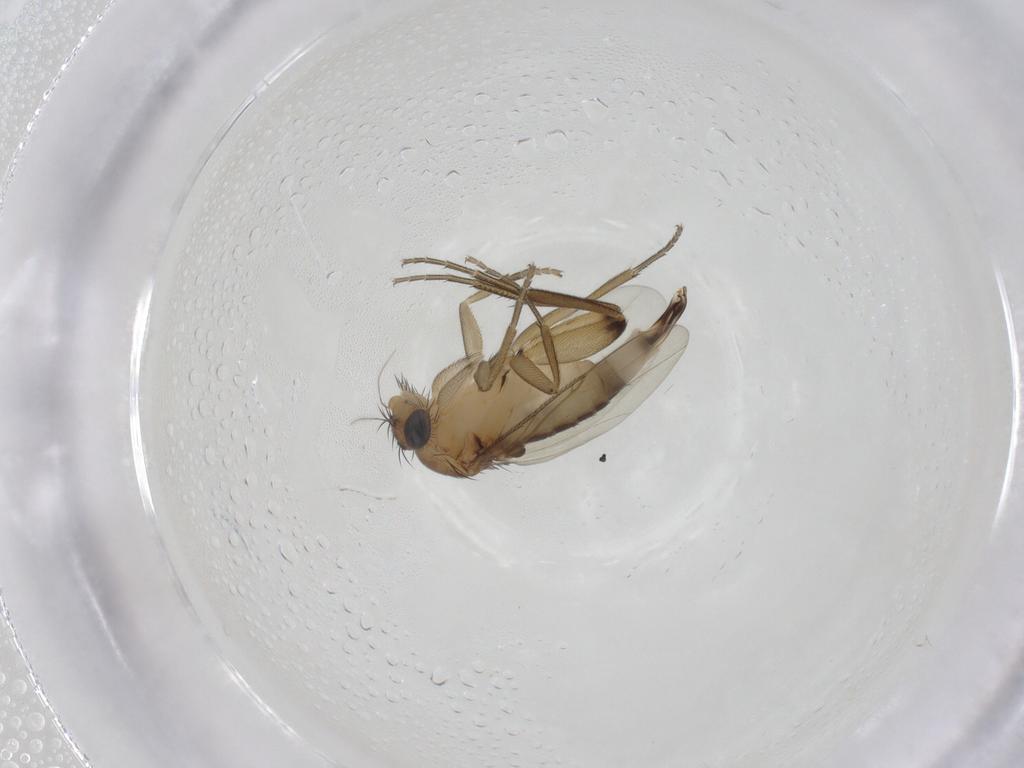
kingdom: Animalia
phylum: Arthropoda
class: Insecta
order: Diptera
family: Phoridae
